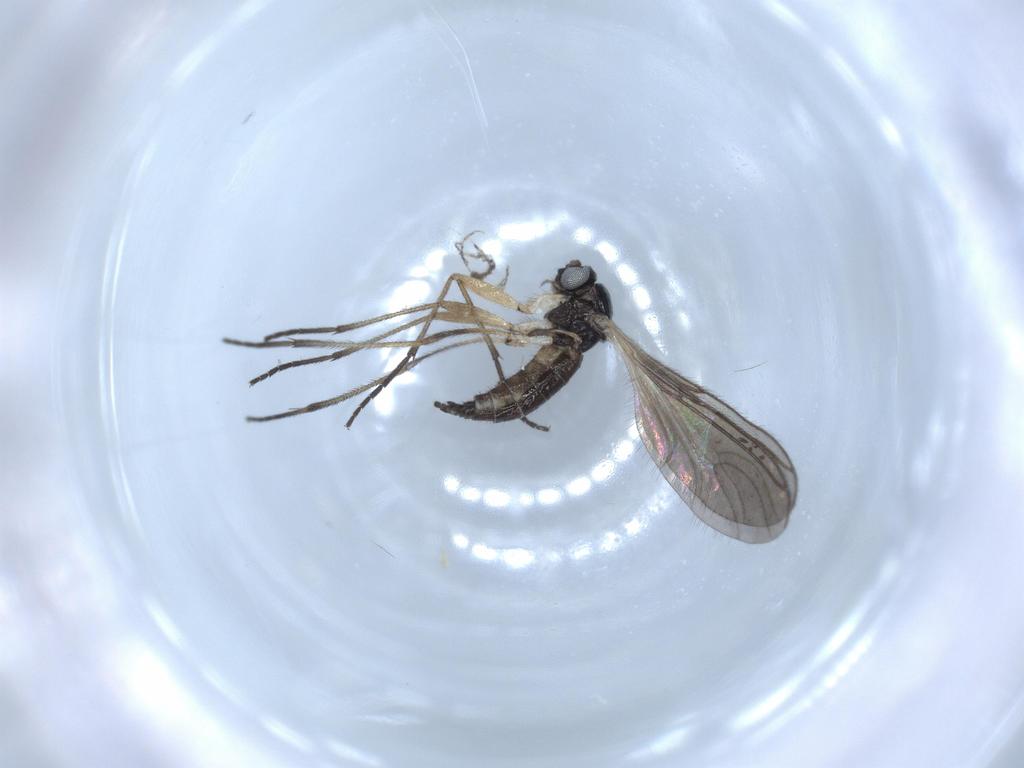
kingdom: Animalia
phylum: Arthropoda
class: Insecta
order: Diptera
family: Sciaridae
